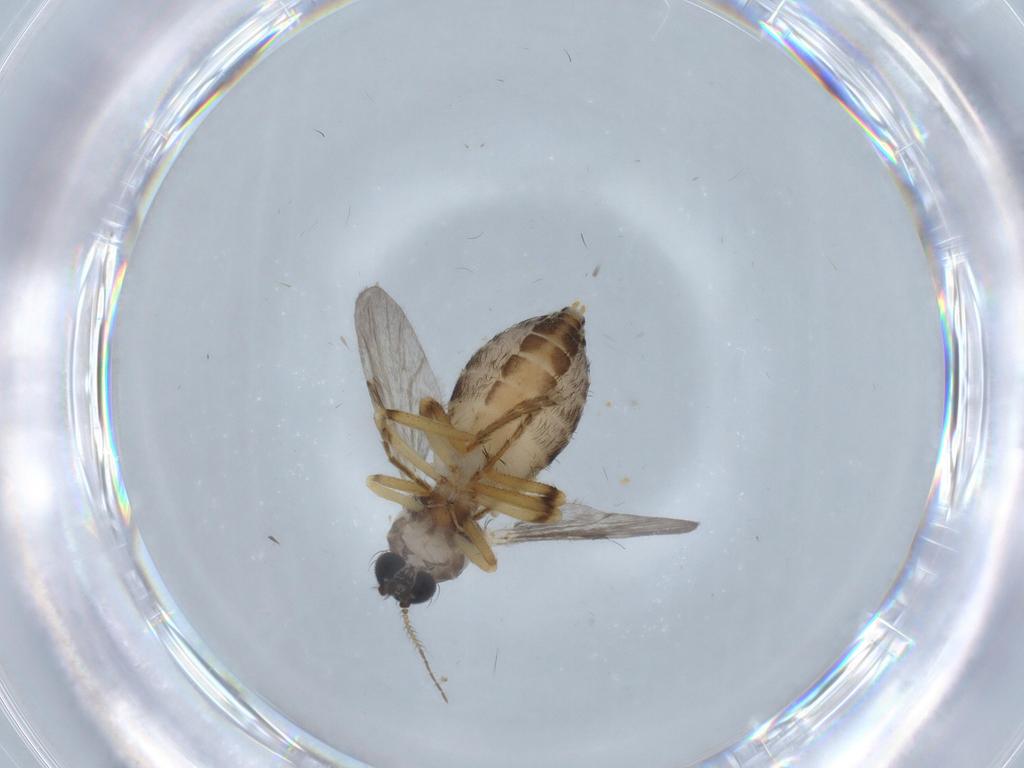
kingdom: Animalia
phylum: Arthropoda
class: Insecta
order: Diptera
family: Ceratopogonidae
